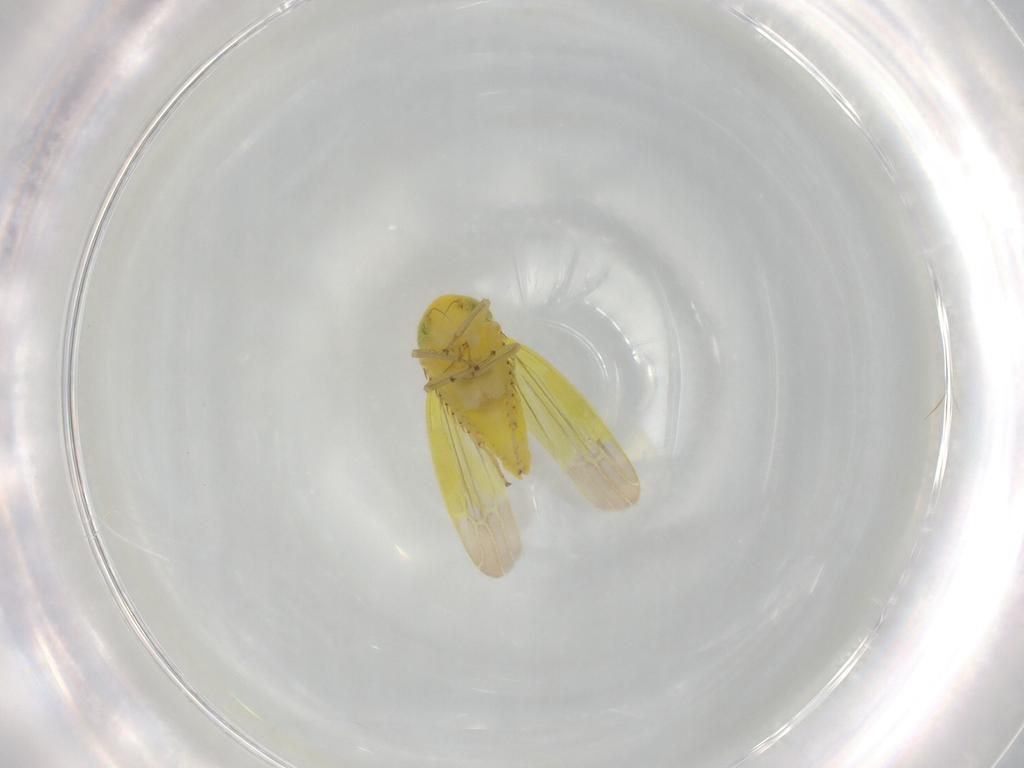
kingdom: Animalia
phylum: Arthropoda
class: Insecta
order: Hemiptera
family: Cicadellidae
